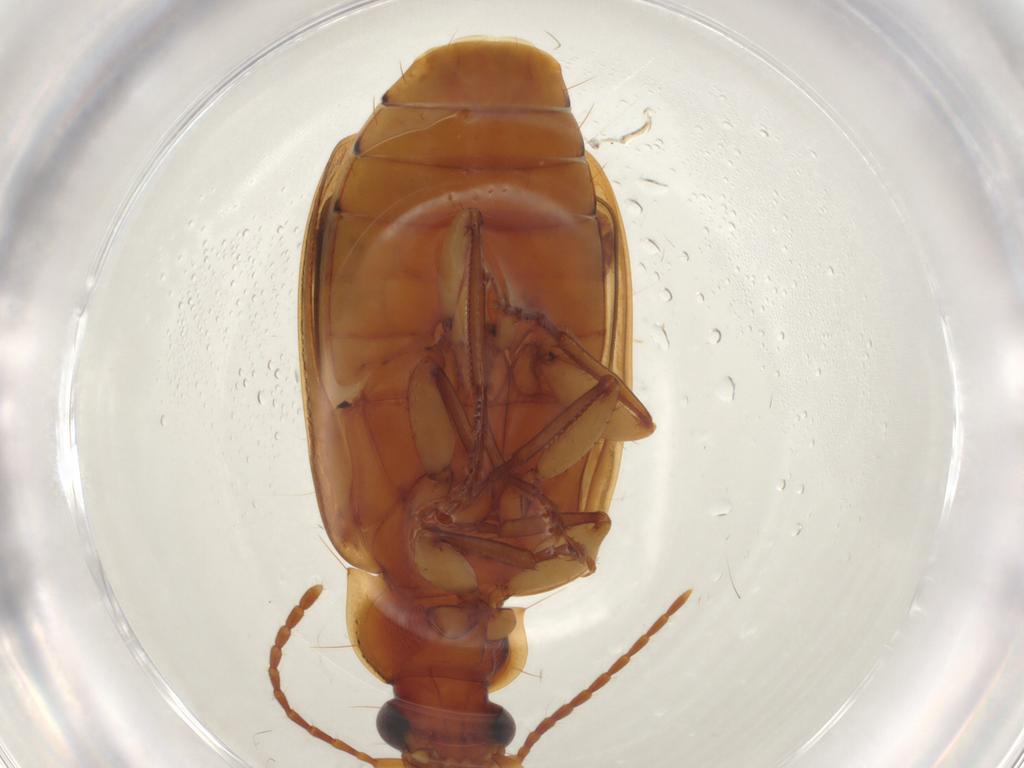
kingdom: Animalia
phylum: Arthropoda
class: Insecta
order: Coleoptera
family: Carabidae
